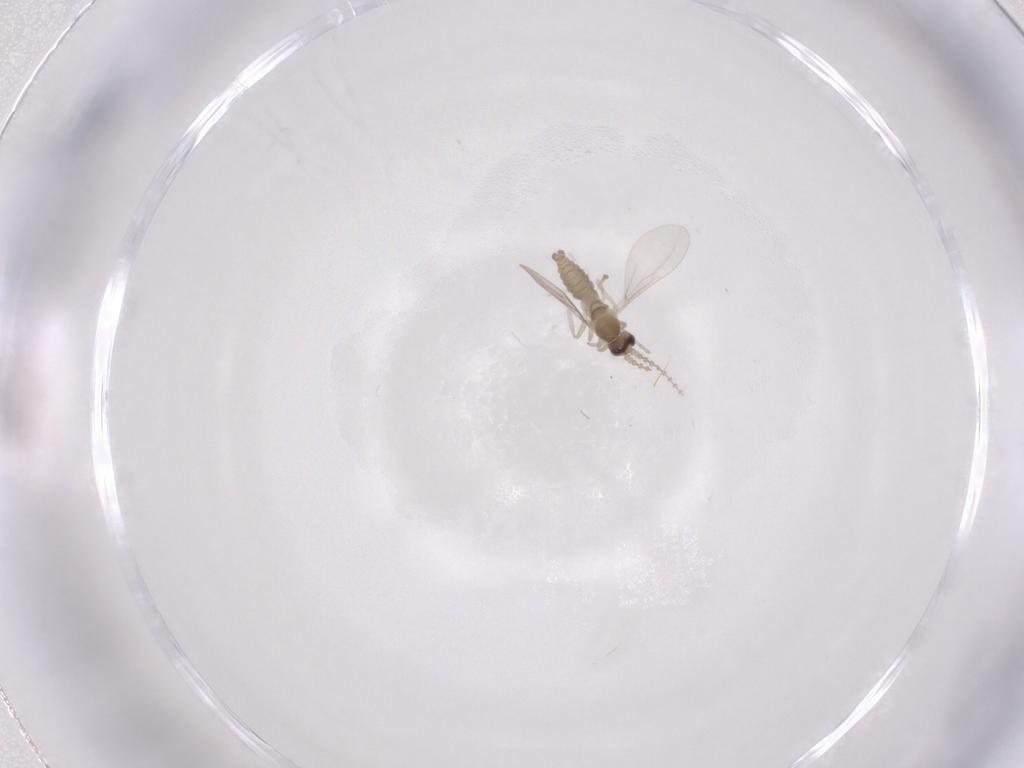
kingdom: Animalia
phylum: Arthropoda
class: Insecta
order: Diptera
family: Cecidomyiidae
